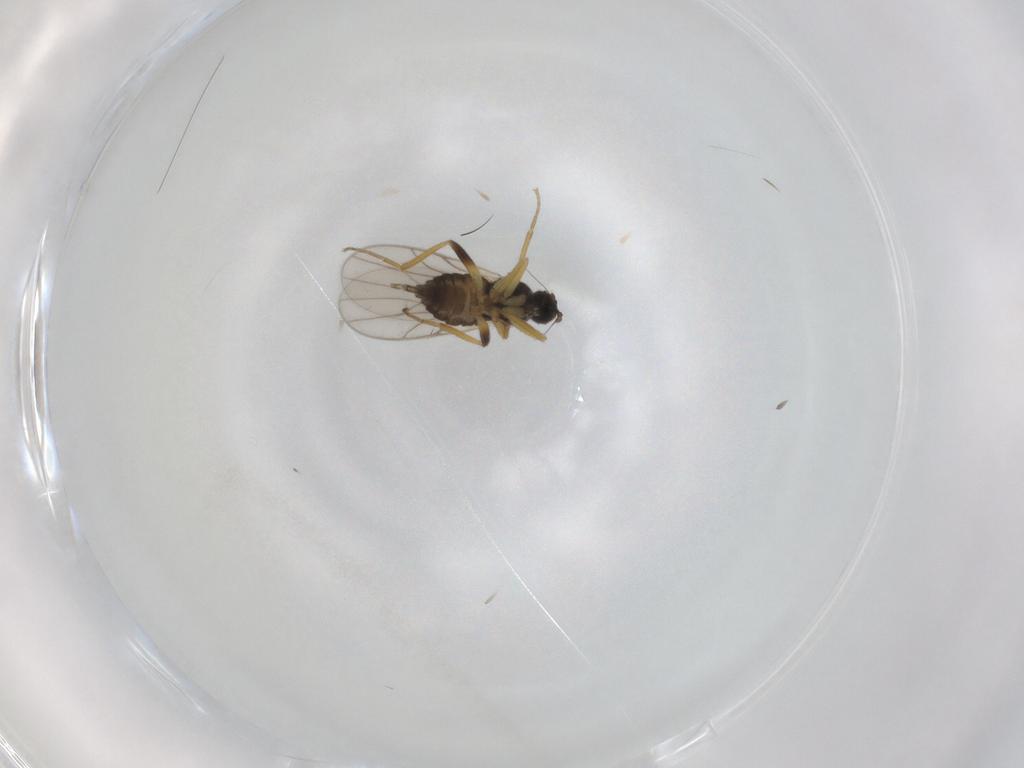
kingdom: Animalia
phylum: Arthropoda
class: Insecta
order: Diptera
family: Hybotidae
